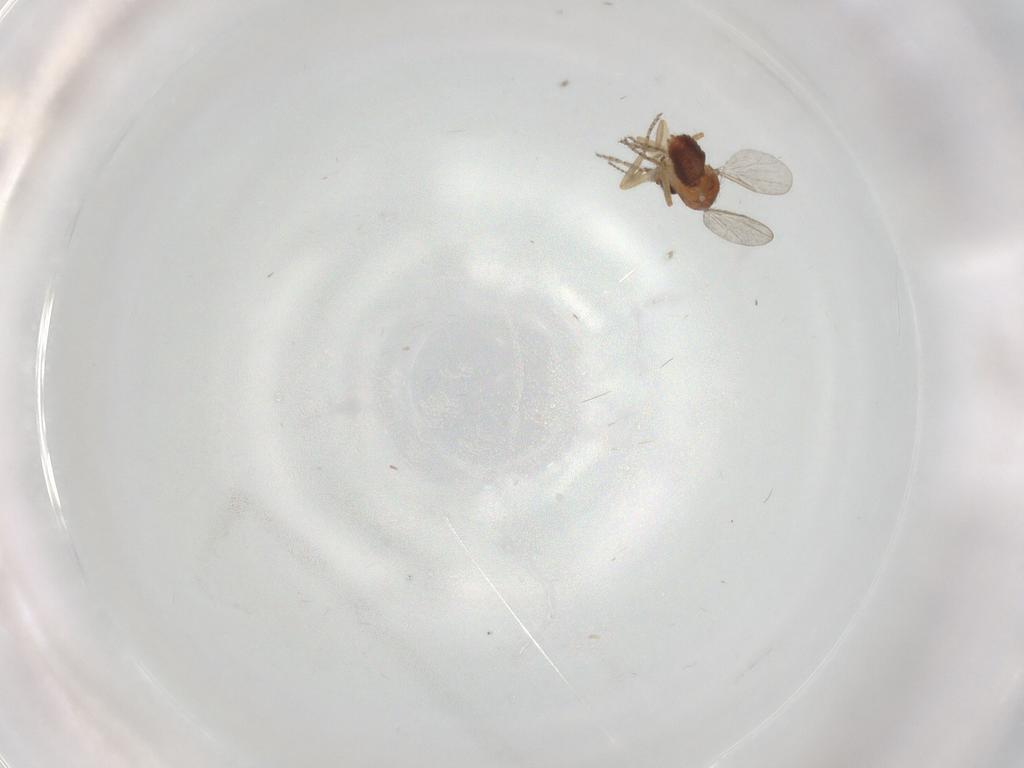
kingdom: Animalia
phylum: Arthropoda
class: Insecta
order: Diptera
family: Ceratopogonidae
